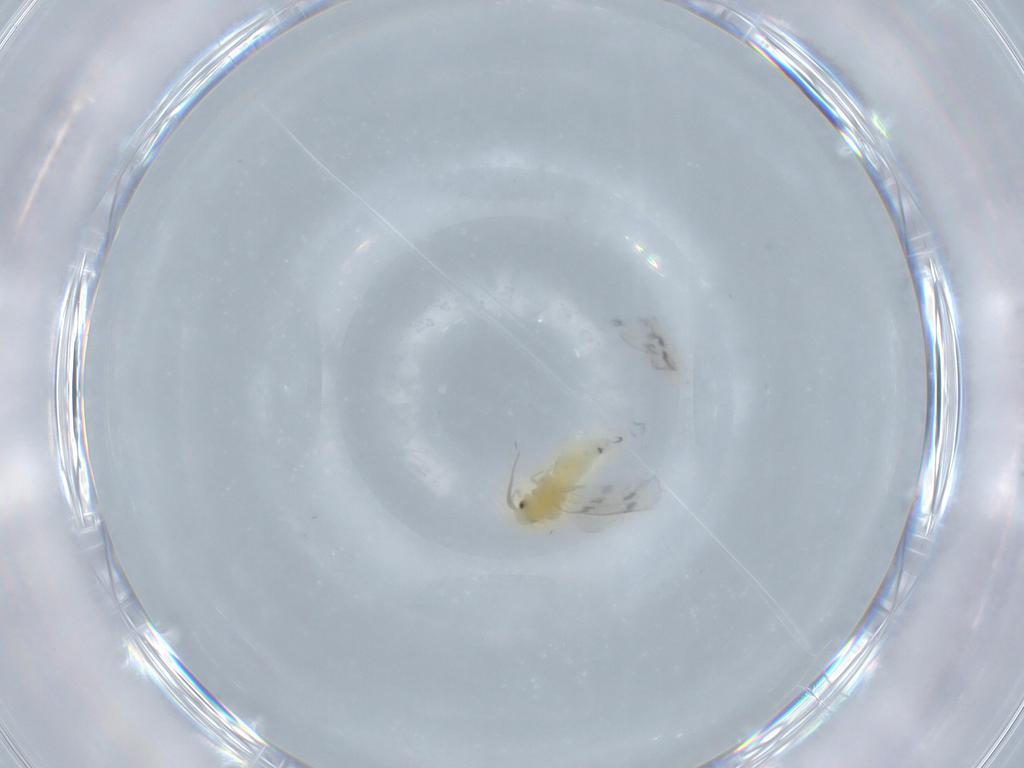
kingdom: Animalia
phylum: Arthropoda
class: Insecta
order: Hemiptera
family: Aleyrodidae
